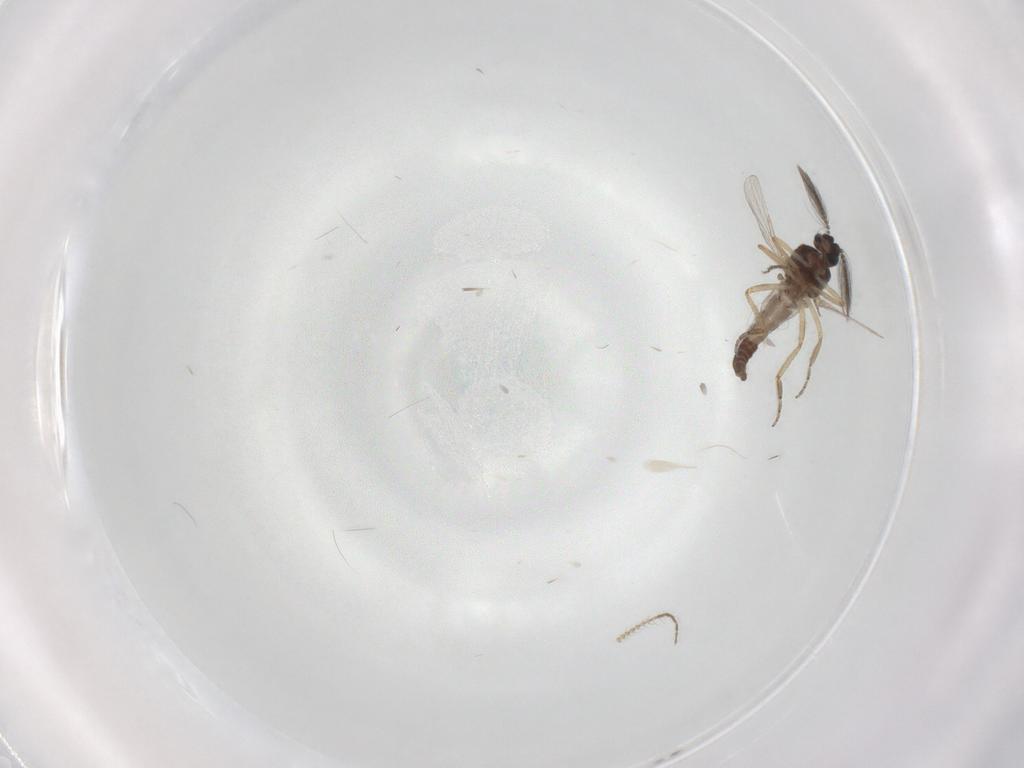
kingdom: Animalia
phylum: Arthropoda
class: Insecta
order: Diptera
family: Ceratopogonidae
